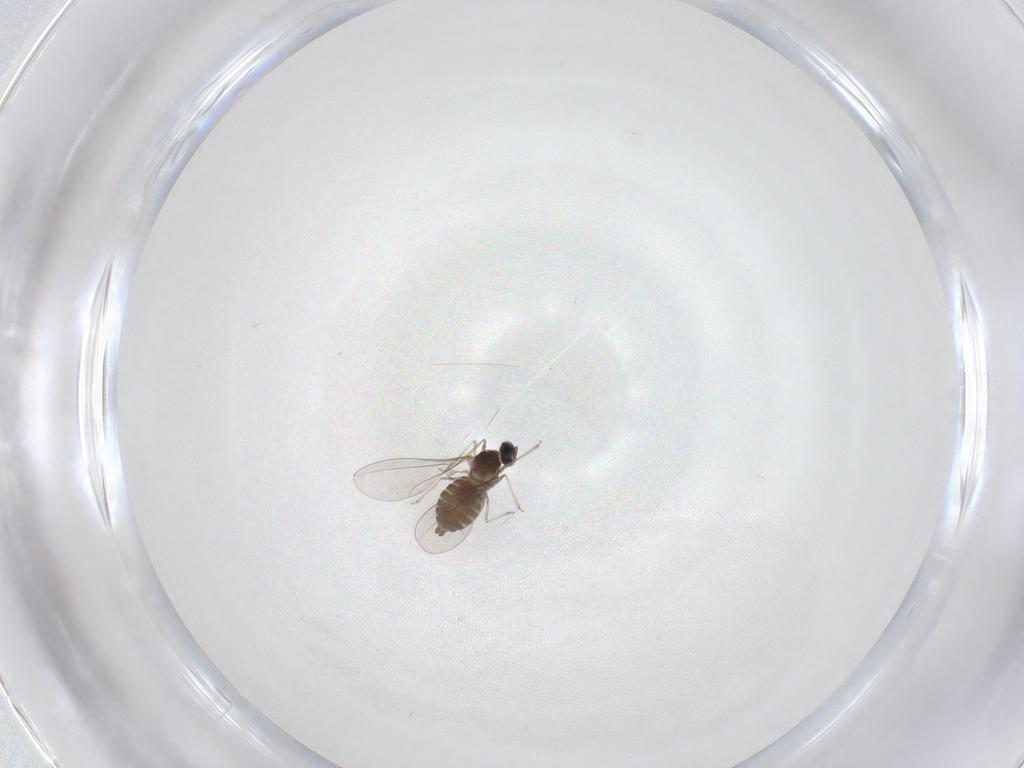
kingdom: Animalia
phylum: Arthropoda
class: Insecta
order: Diptera
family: Cecidomyiidae
